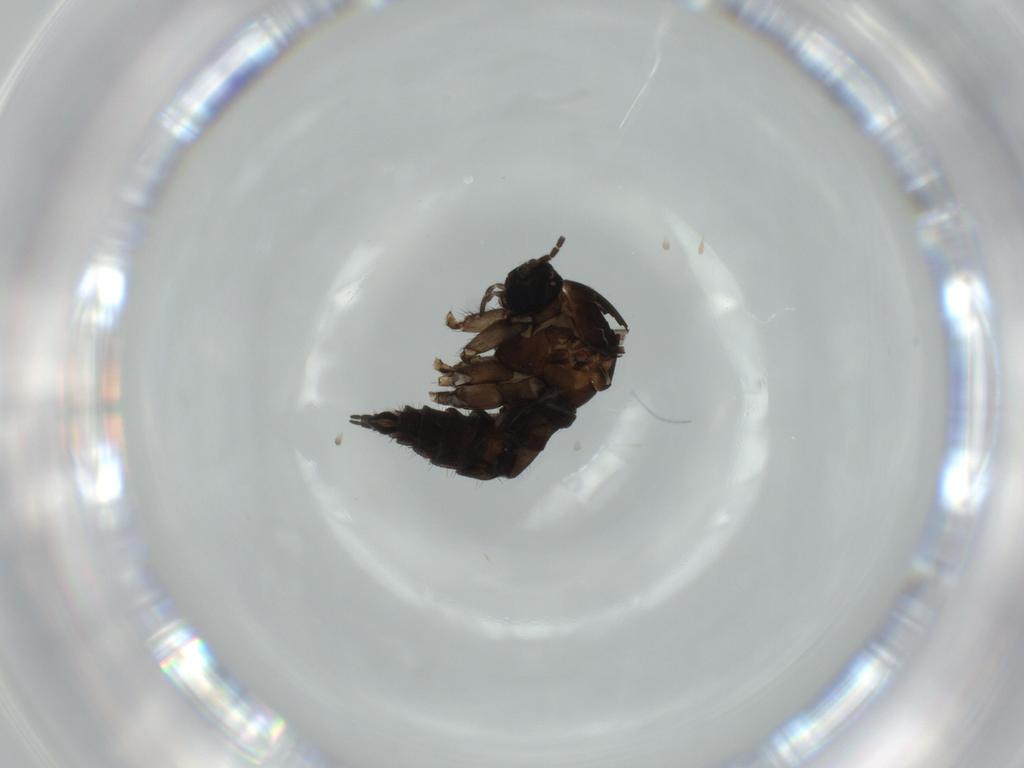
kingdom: Animalia
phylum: Arthropoda
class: Insecta
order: Diptera
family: Sciaridae
